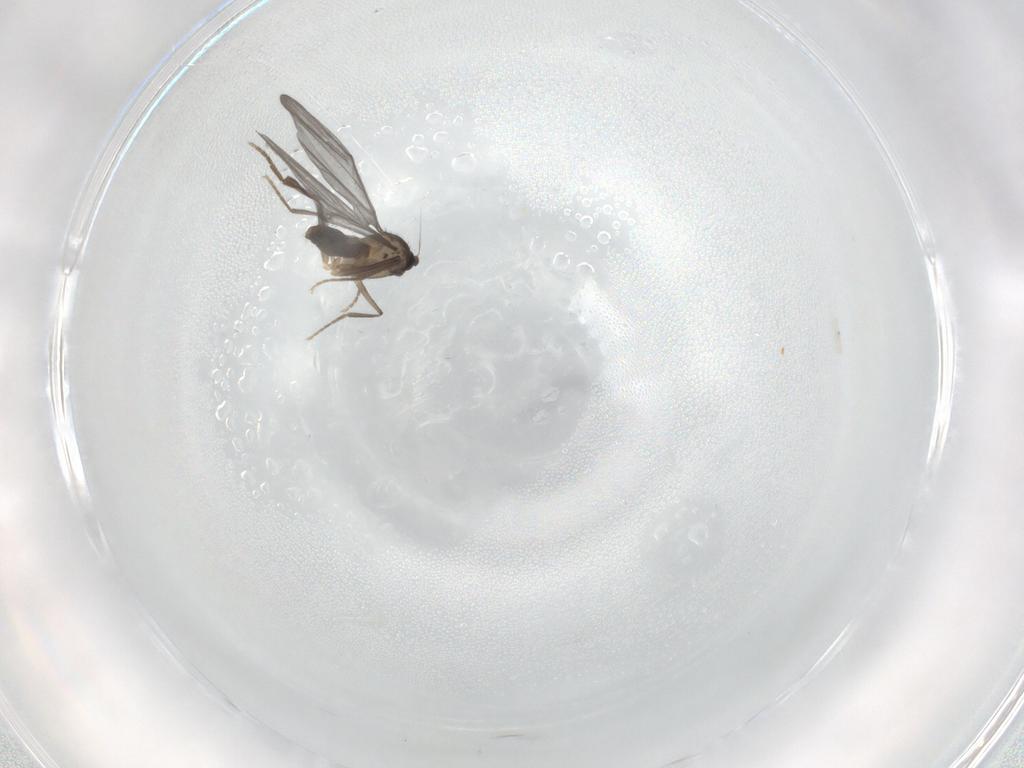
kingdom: Animalia
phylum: Arthropoda
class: Insecta
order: Diptera
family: Phoridae
